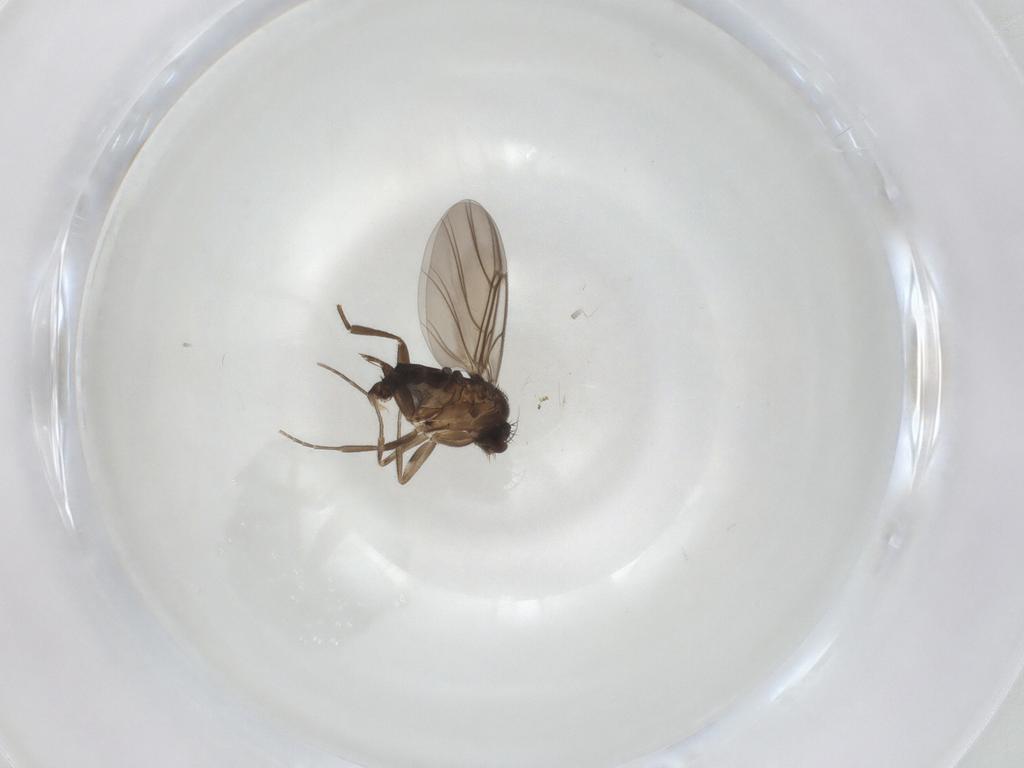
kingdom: Animalia
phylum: Arthropoda
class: Insecta
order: Diptera
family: Phoridae
